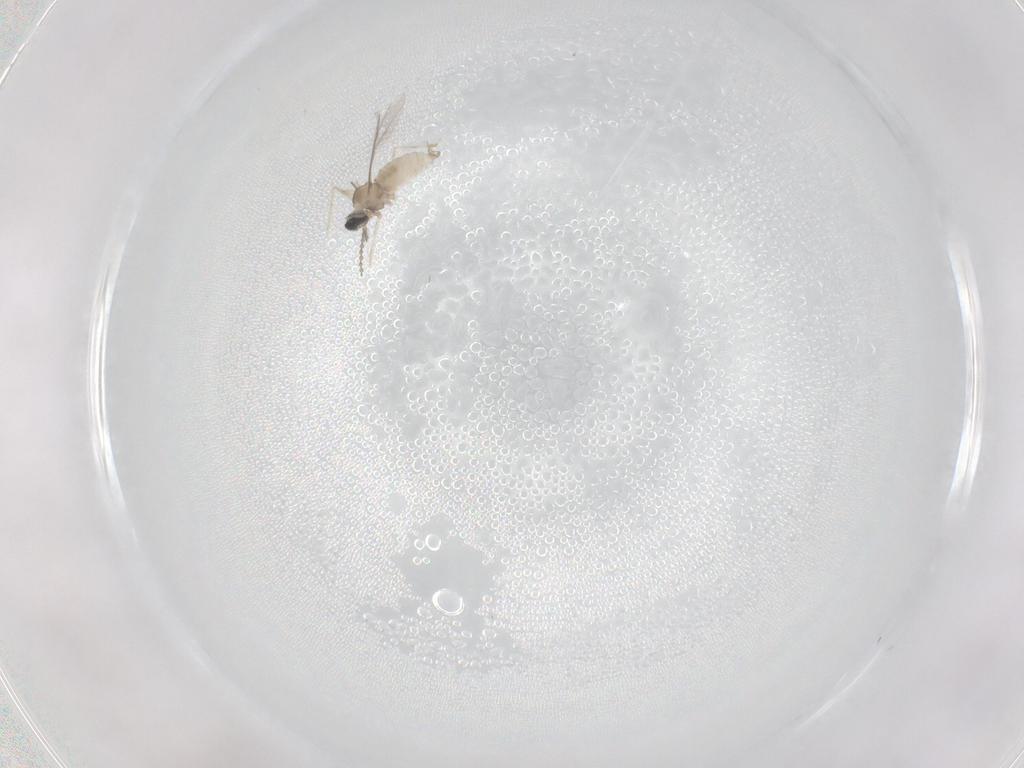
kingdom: Animalia
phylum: Arthropoda
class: Insecta
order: Diptera
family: Cecidomyiidae
